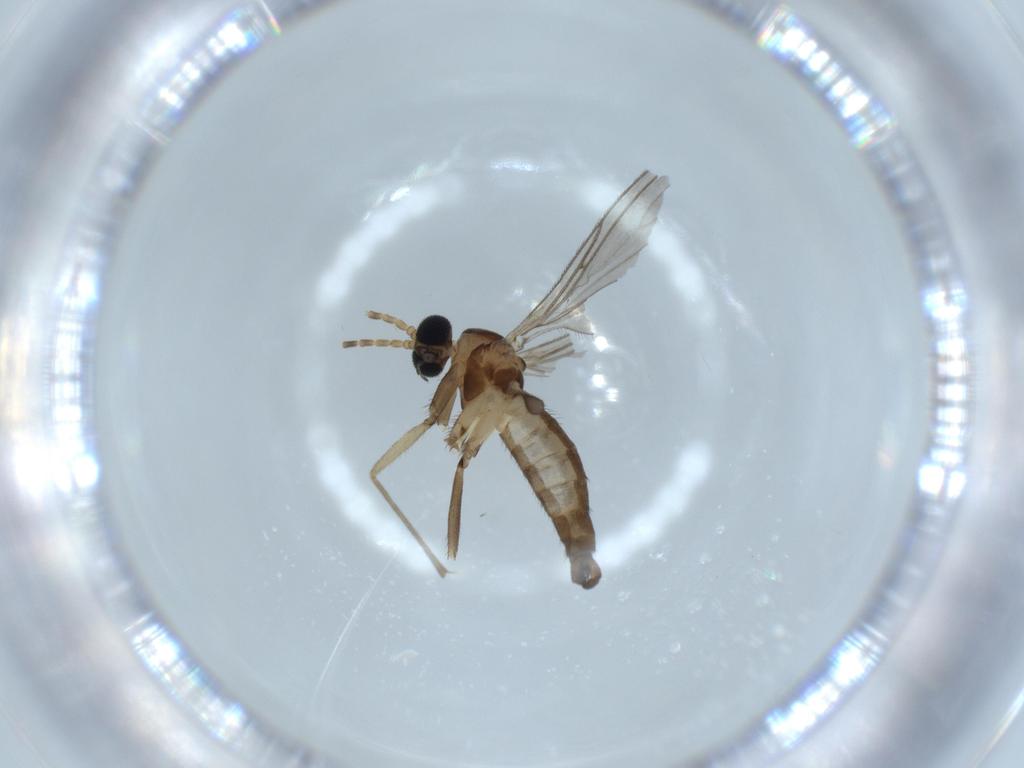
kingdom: Animalia
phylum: Arthropoda
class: Insecta
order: Diptera
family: Sciaridae
